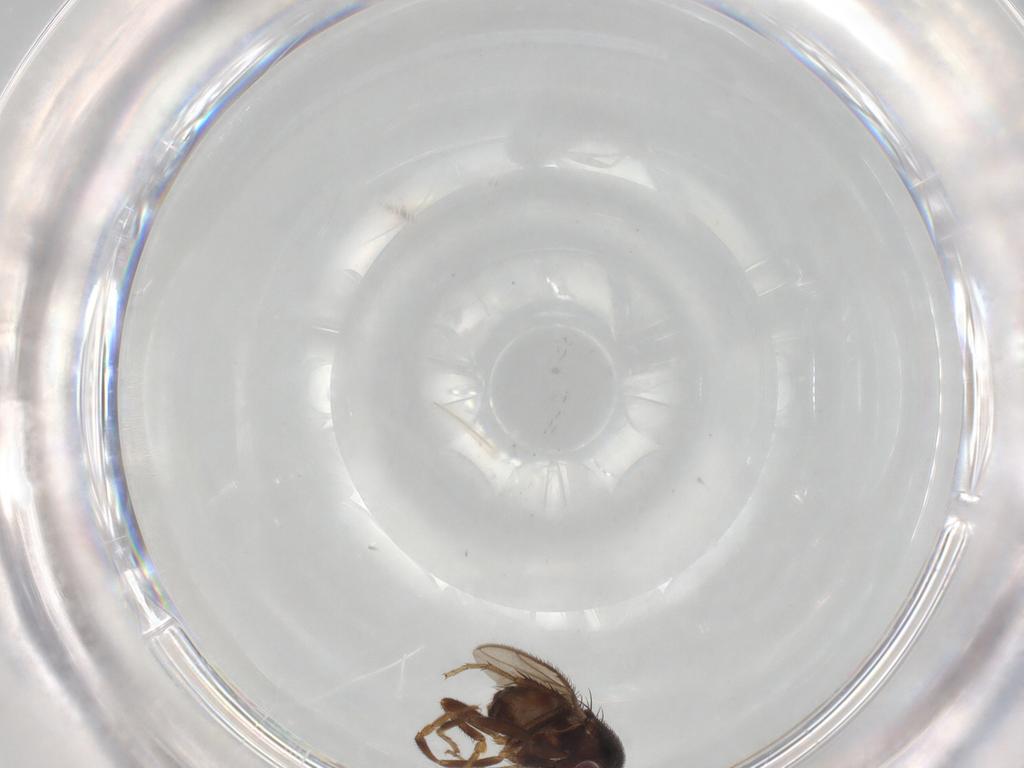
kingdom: Animalia
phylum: Arthropoda
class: Insecta
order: Diptera
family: Sphaeroceridae
